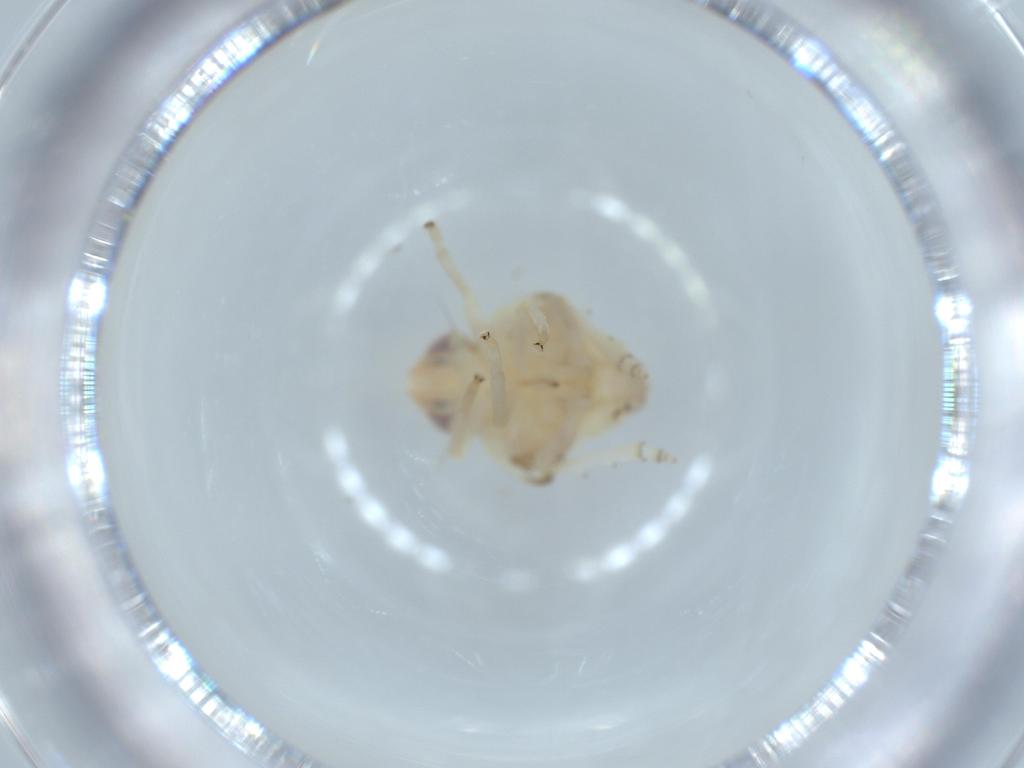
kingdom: Animalia
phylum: Arthropoda
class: Insecta
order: Hemiptera
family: Nogodinidae
